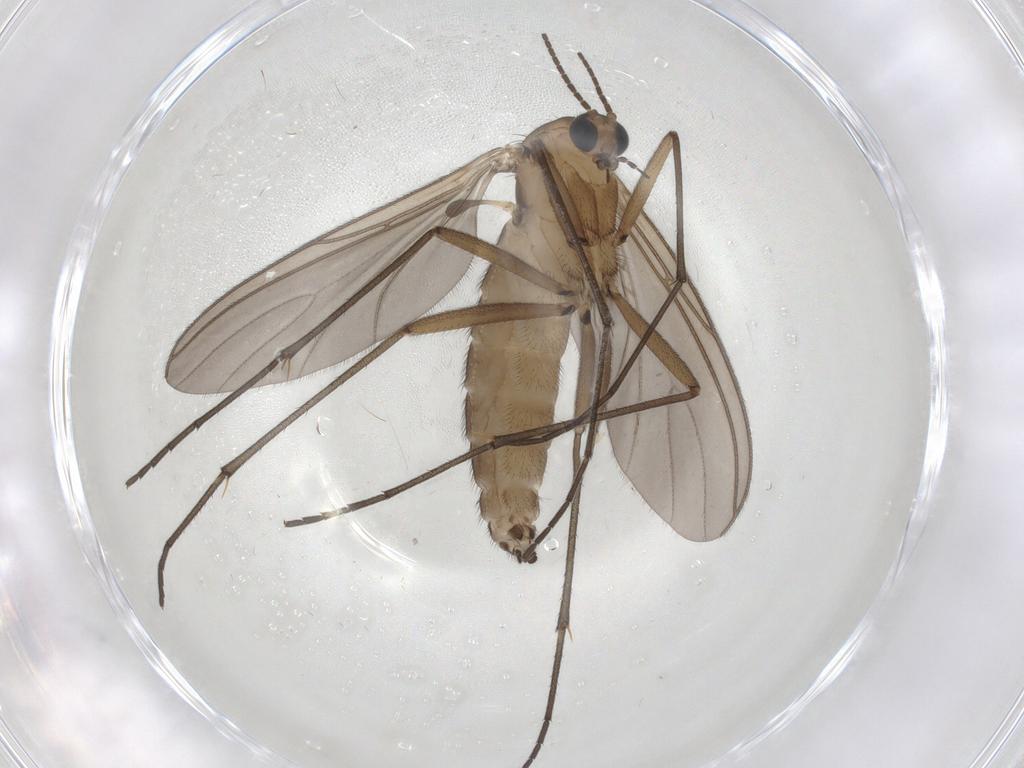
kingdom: Animalia
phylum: Arthropoda
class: Insecta
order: Diptera
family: Sciaridae
